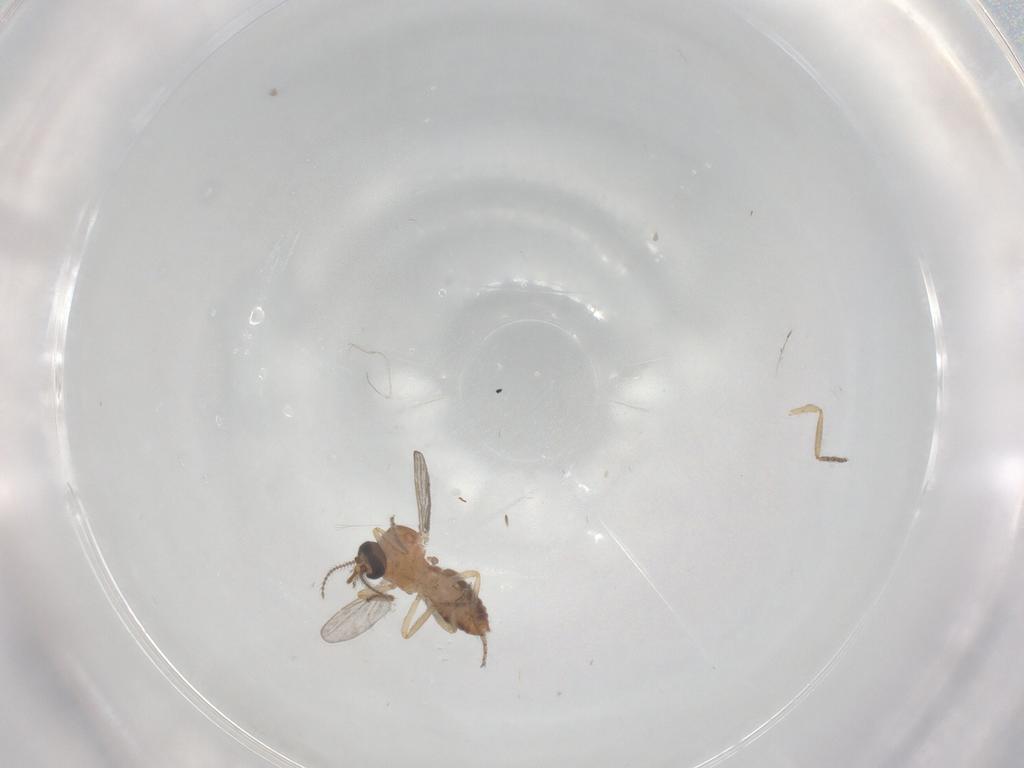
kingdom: Animalia
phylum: Arthropoda
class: Insecta
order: Diptera
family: Ceratopogonidae
